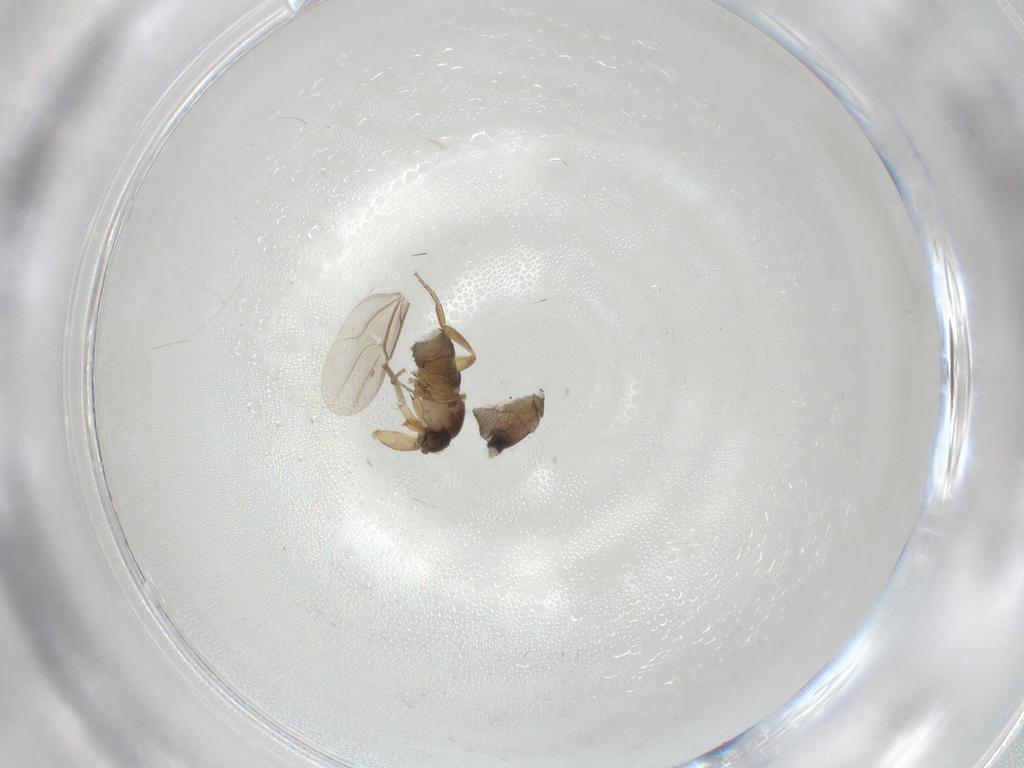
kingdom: Animalia
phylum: Arthropoda
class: Insecta
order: Diptera
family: Phoridae
